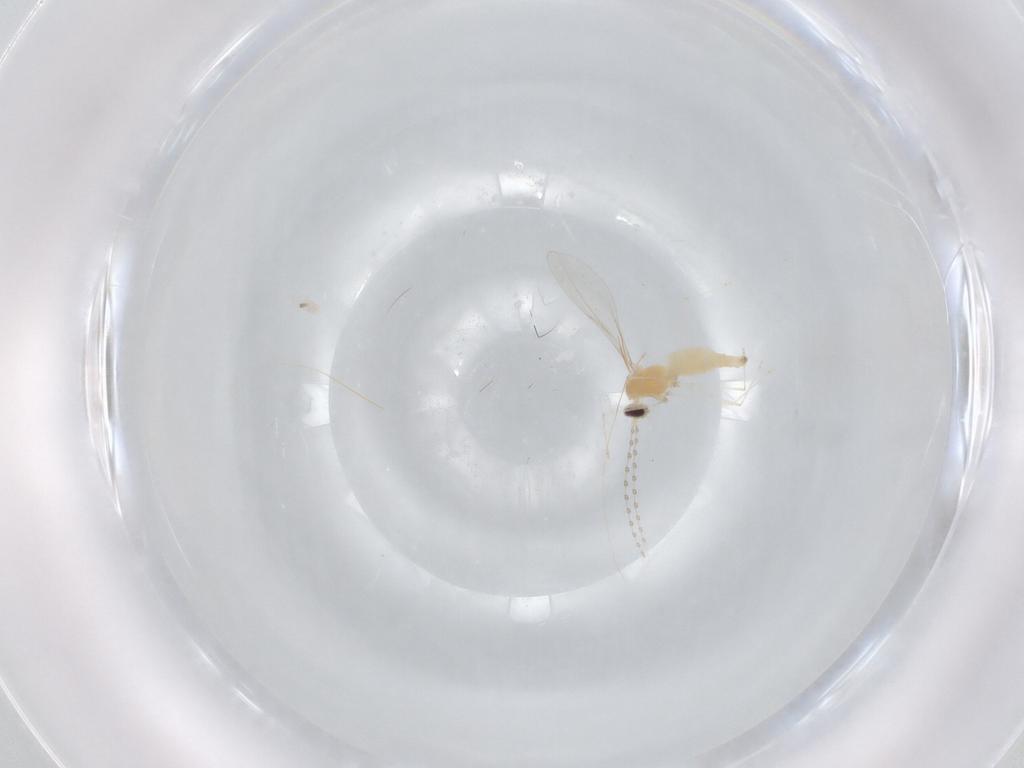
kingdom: Animalia
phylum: Arthropoda
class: Insecta
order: Diptera
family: Cecidomyiidae
